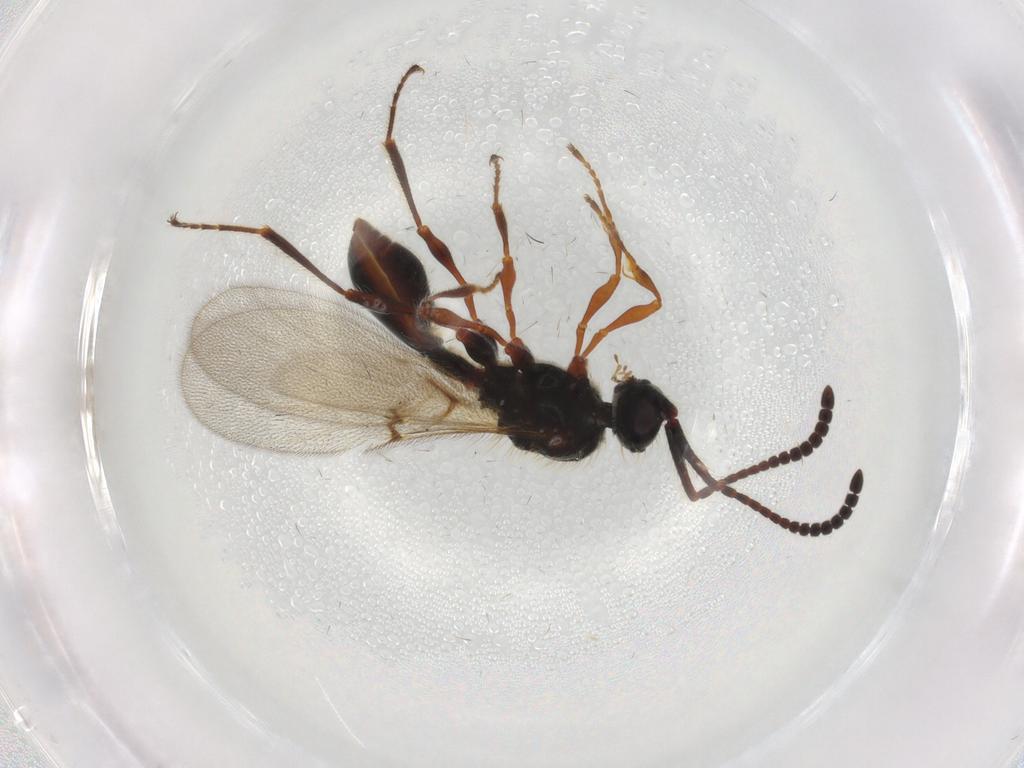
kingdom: Animalia
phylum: Arthropoda
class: Insecta
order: Hymenoptera
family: Diapriidae
